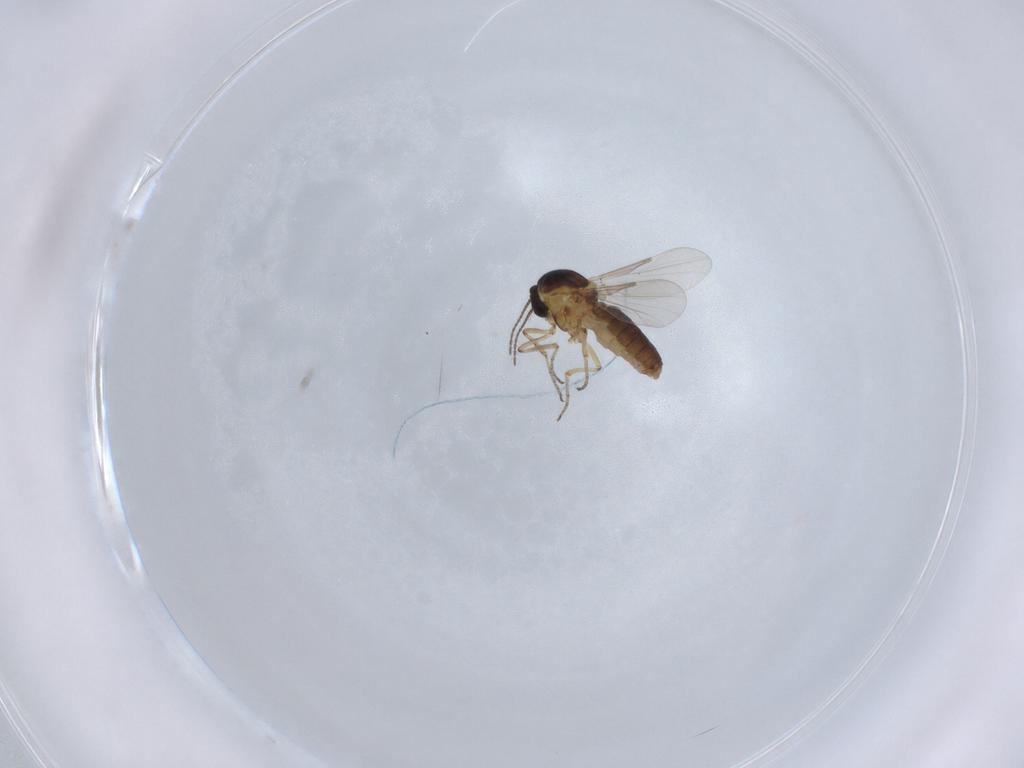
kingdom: Animalia
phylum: Arthropoda
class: Insecta
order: Diptera
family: Ceratopogonidae
